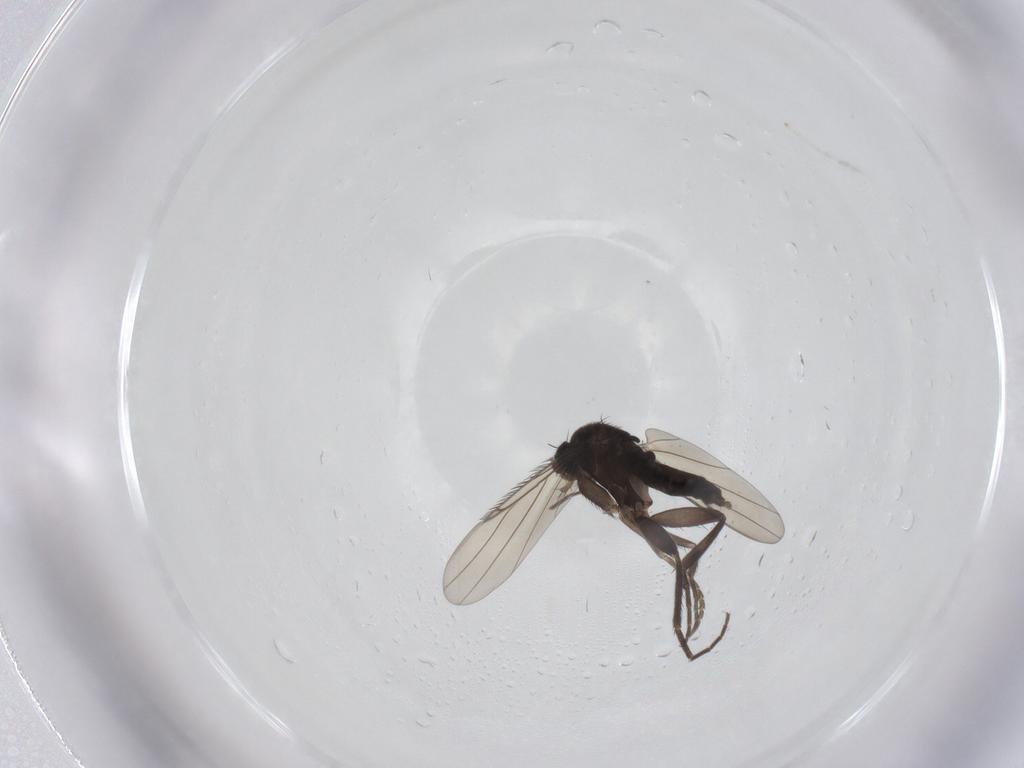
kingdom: Animalia
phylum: Arthropoda
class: Insecta
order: Diptera
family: Phoridae
